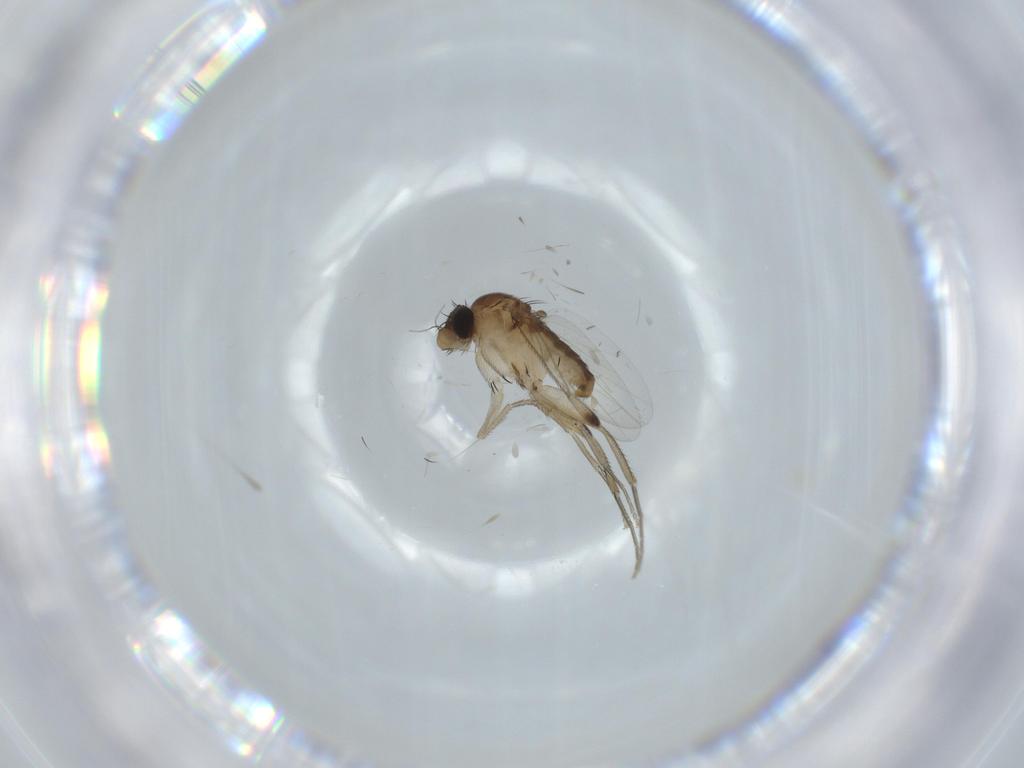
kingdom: Animalia
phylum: Arthropoda
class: Insecta
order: Diptera
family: Phoridae
